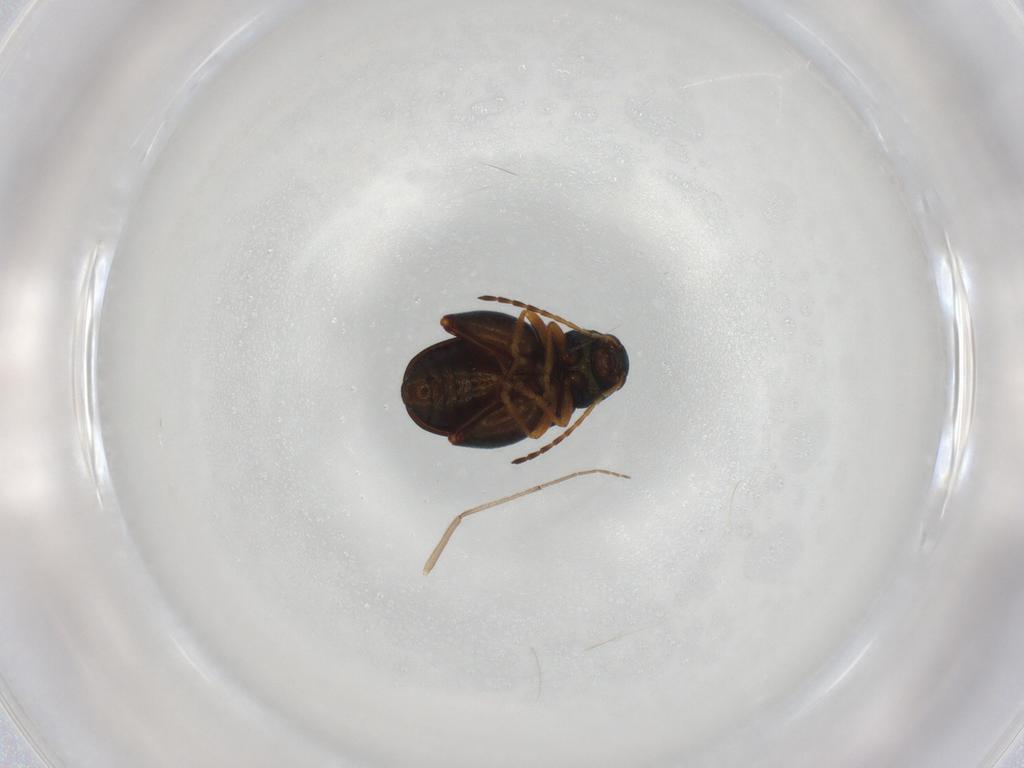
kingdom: Animalia
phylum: Arthropoda
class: Insecta
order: Coleoptera
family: Chrysomelidae
